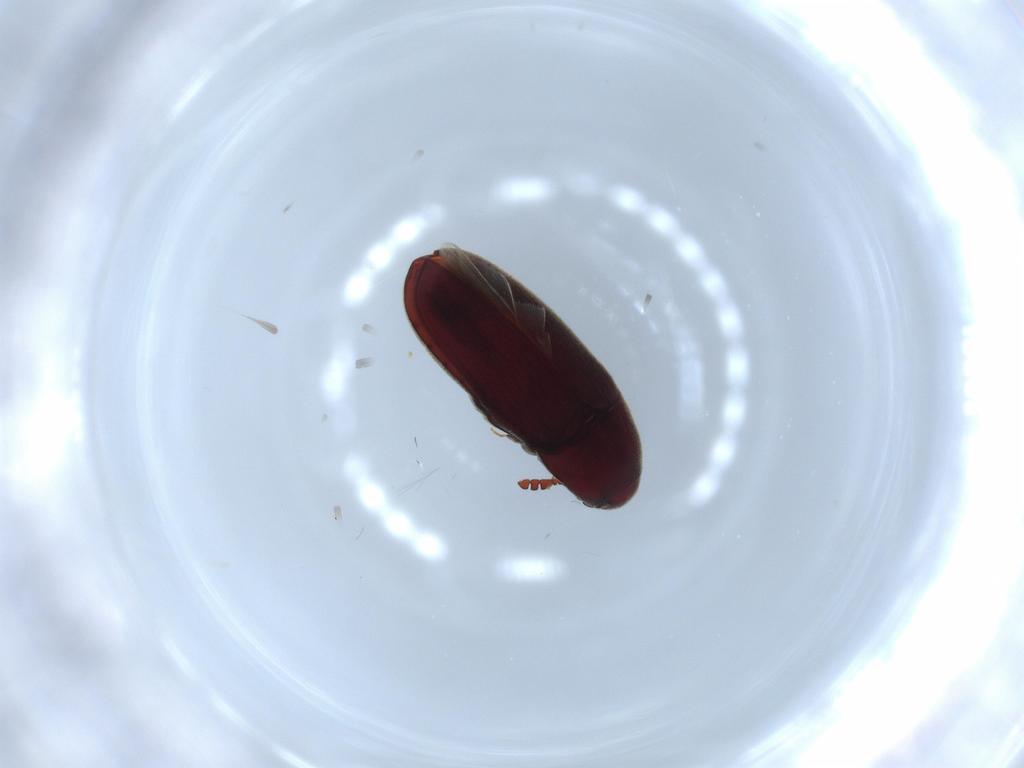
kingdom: Animalia
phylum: Arthropoda
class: Insecta
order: Coleoptera
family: Throscidae
